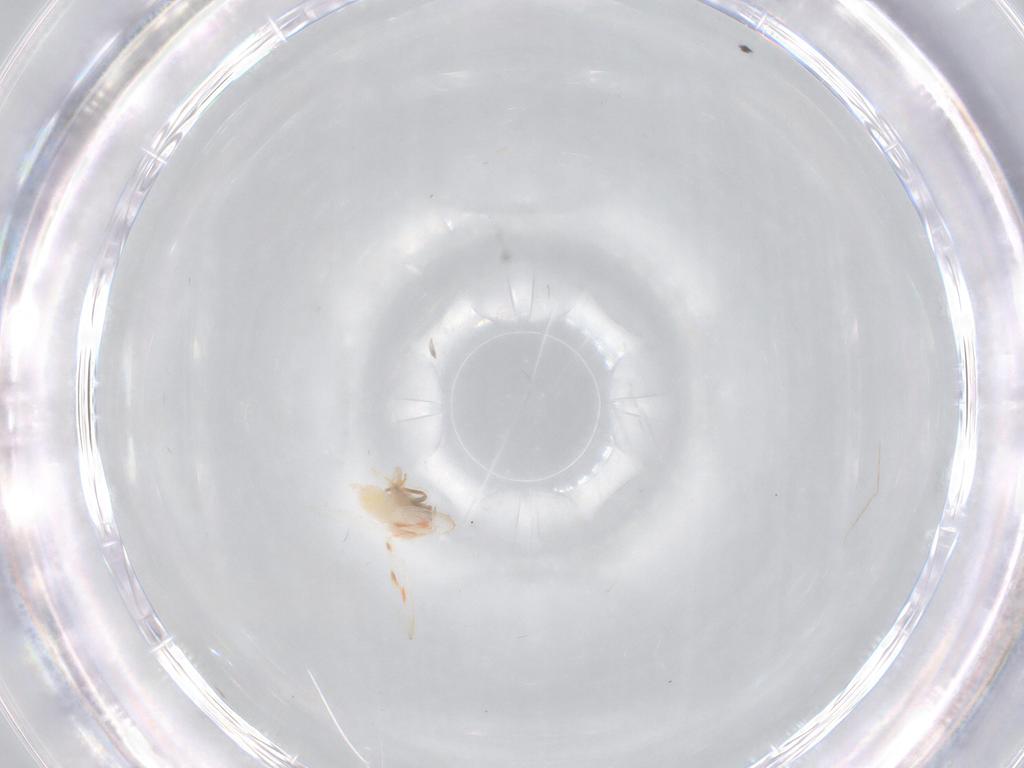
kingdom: Animalia
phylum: Arthropoda
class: Insecta
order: Hemiptera
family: Aleyrodidae
